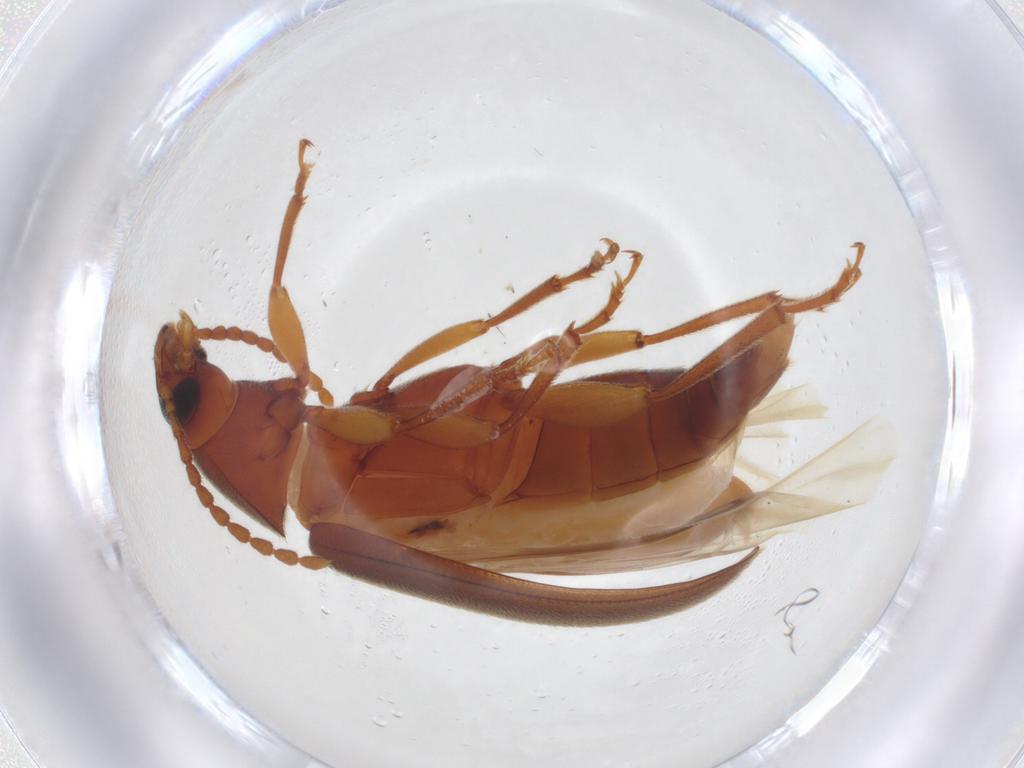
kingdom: Animalia
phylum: Arthropoda
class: Insecta
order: Coleoptera
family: Tenebrionidae
